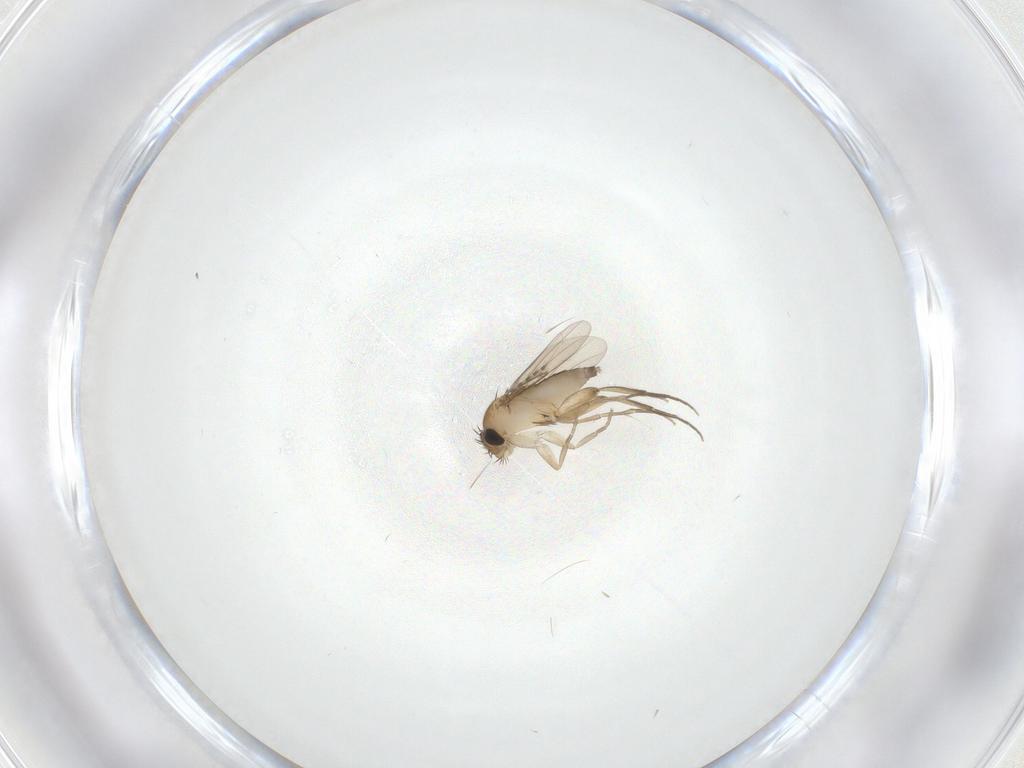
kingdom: Animalia
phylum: Arthropoda
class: Insecta
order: Diptera
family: Phoridae
